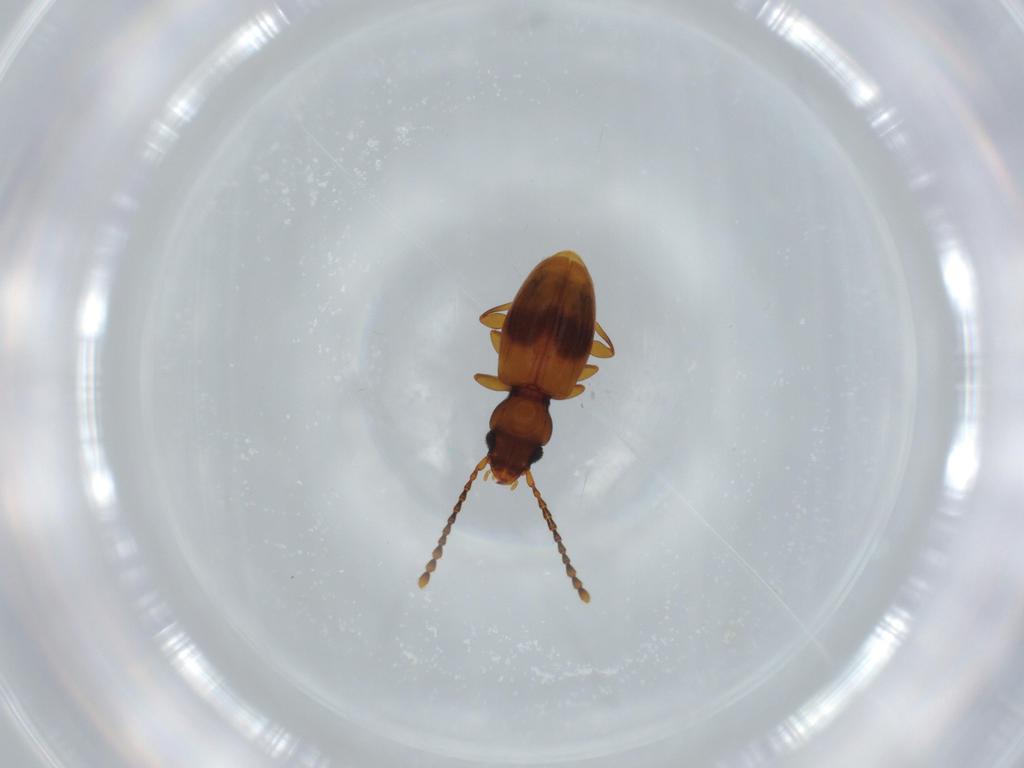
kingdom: Animalia
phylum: Arthropoda
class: Insecta
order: Coleoptera
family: Laemophloeidae
